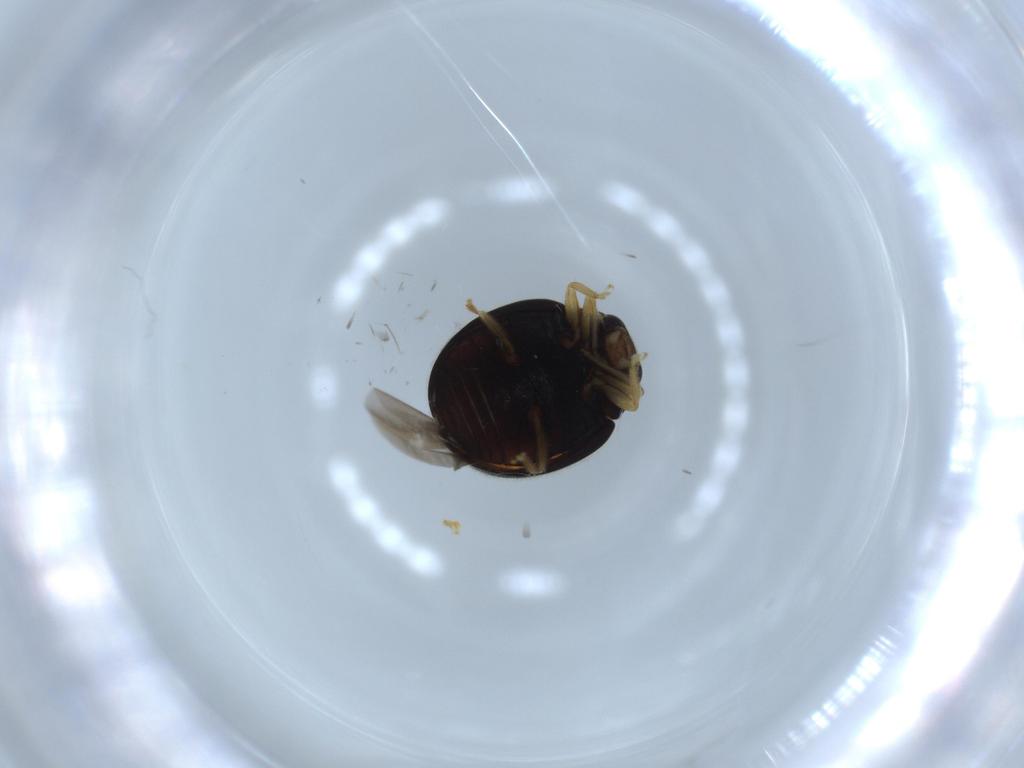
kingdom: Animalia
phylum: Arthropoda
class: Insecta
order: Coleoptera
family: Coccinellidae
